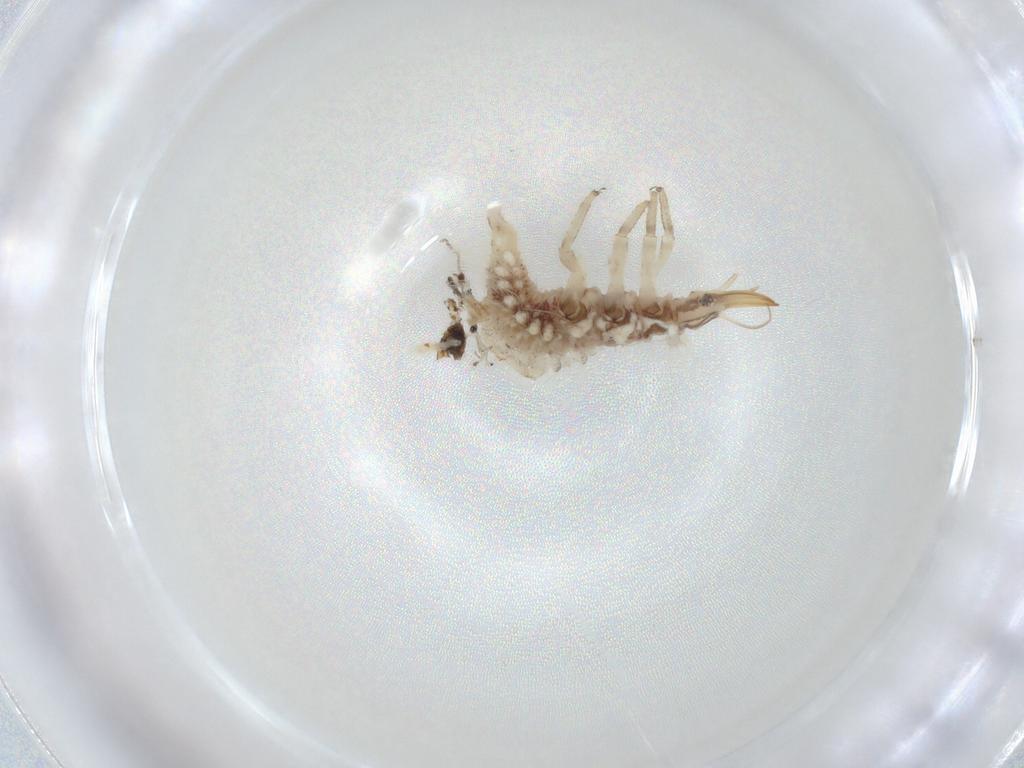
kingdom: Animalia
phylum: Arthropoda
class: Insecta
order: Neuroptera
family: Chrysopidae
